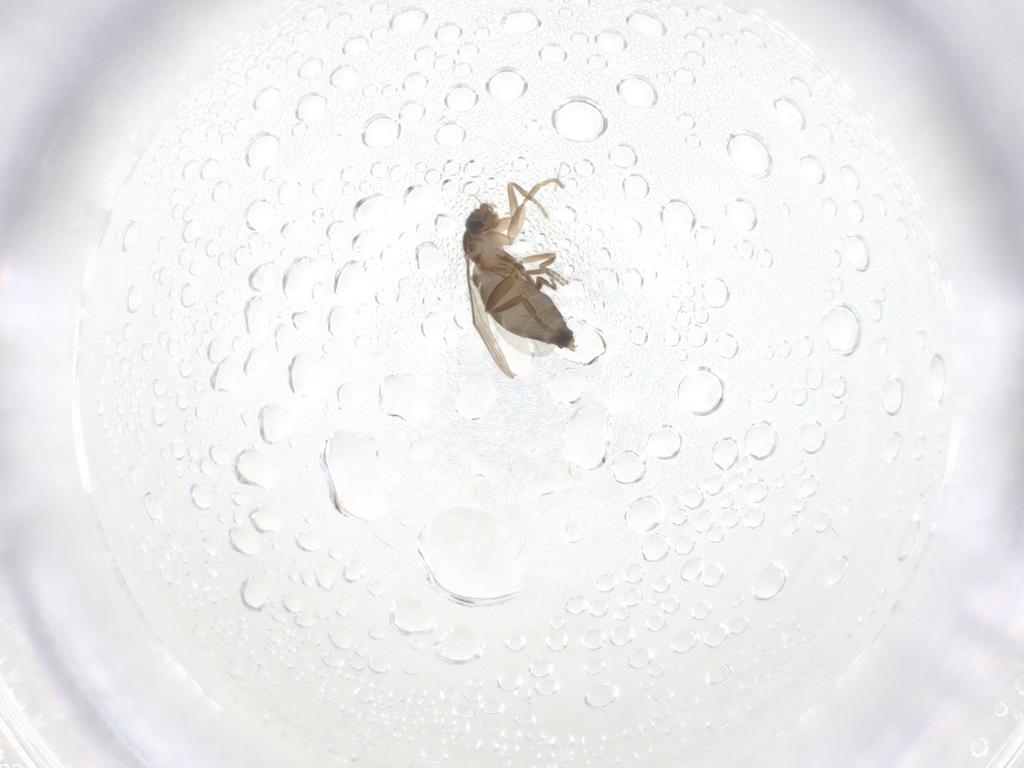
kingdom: Animalia
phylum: Arthropoda
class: Insecta
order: Diptera
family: Phoridae
